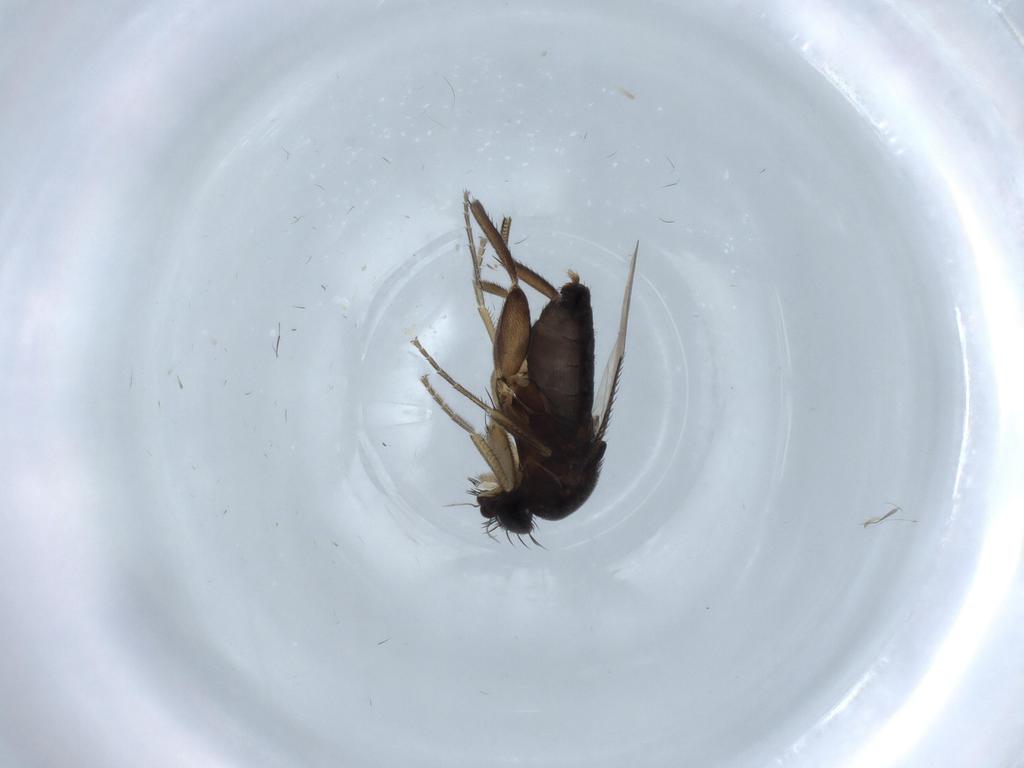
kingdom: Animalia
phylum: Arthropoda
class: Insecta
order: Diptera
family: Phoridae
